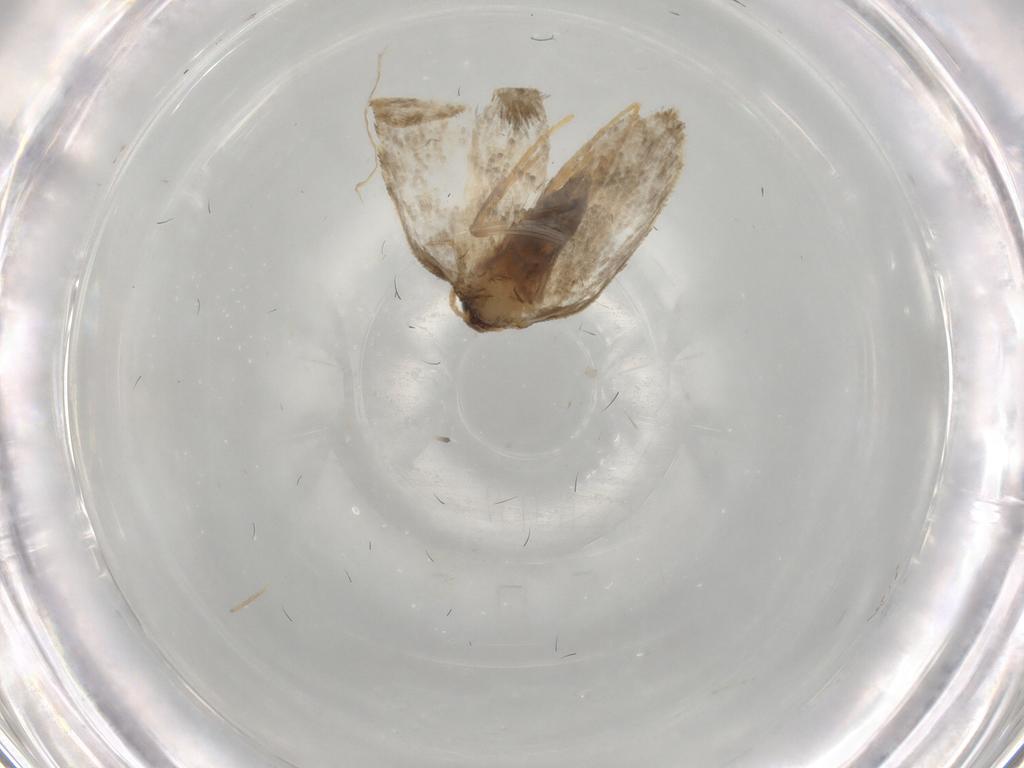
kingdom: Animalia
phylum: Arthropoda
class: Insecta
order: Lepidoptera
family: Psychidae
